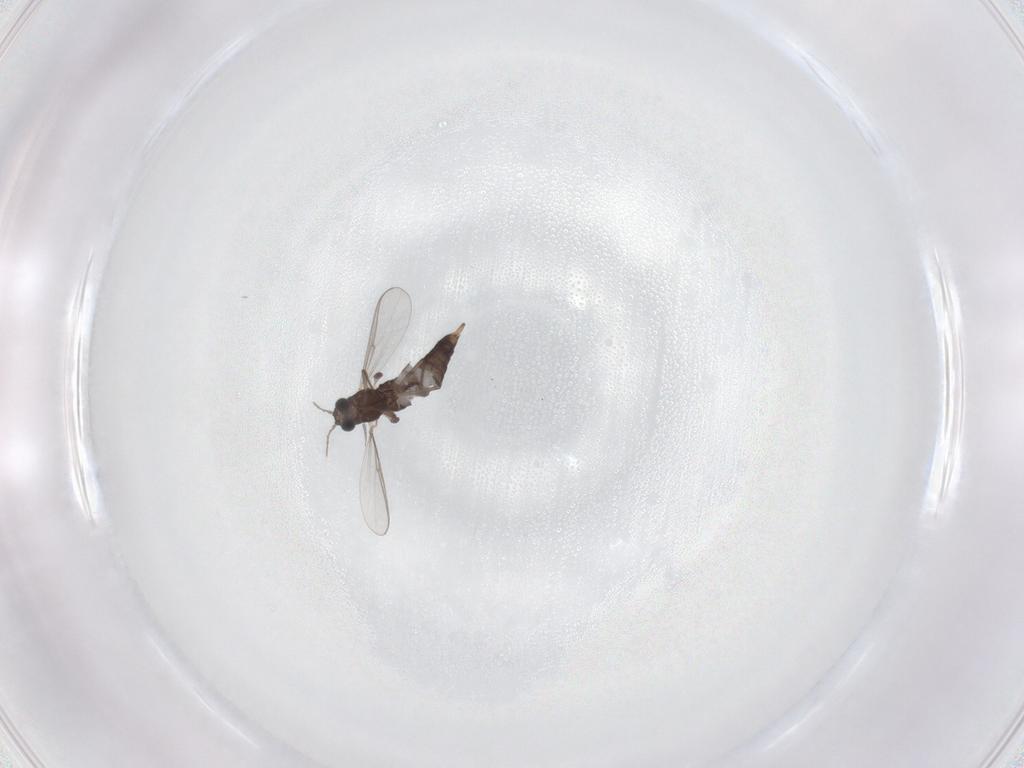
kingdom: Animalia
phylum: Arthropoda
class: Insecta
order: Diptera
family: Chironomidae
